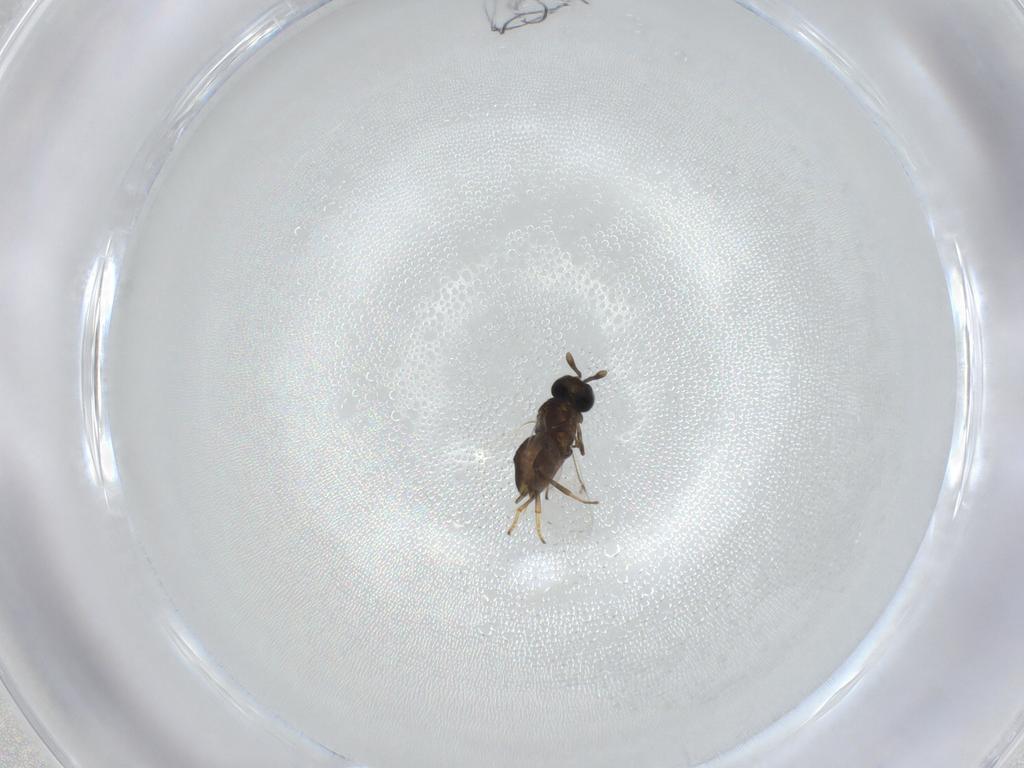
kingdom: Animalia
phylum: Arthropoda
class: Insecta
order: Hymenoptera
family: Encyrtidae
